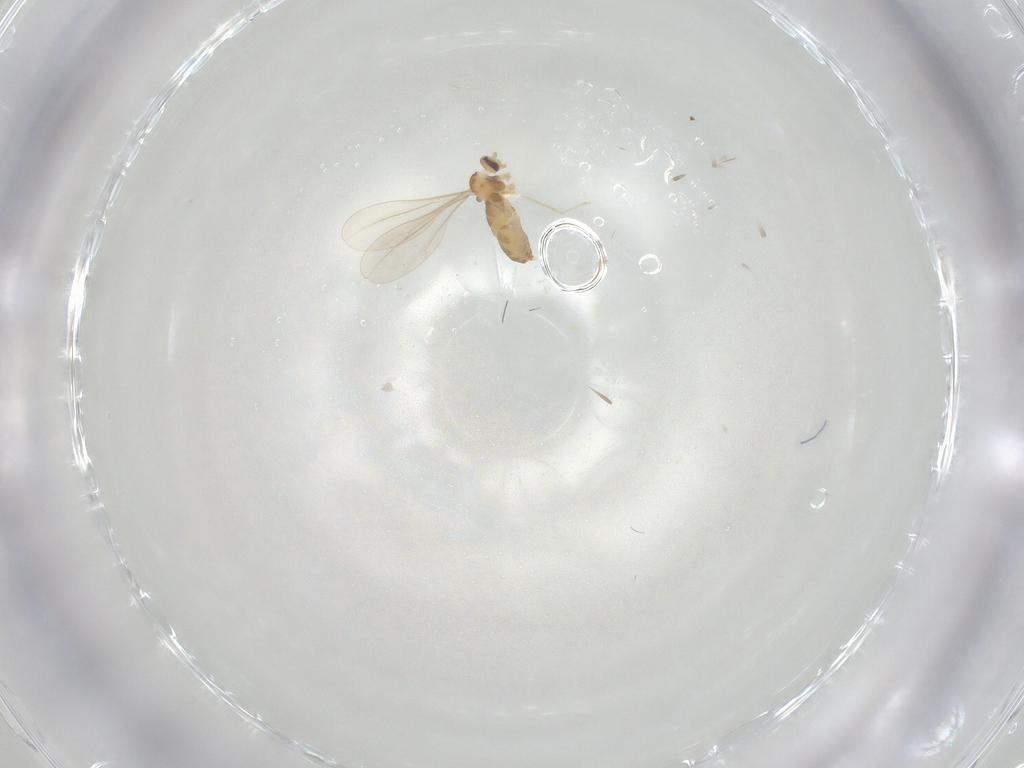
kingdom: Animalia
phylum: Arthropoda
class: Insecta
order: Diptera
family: Cecidomyiidae
